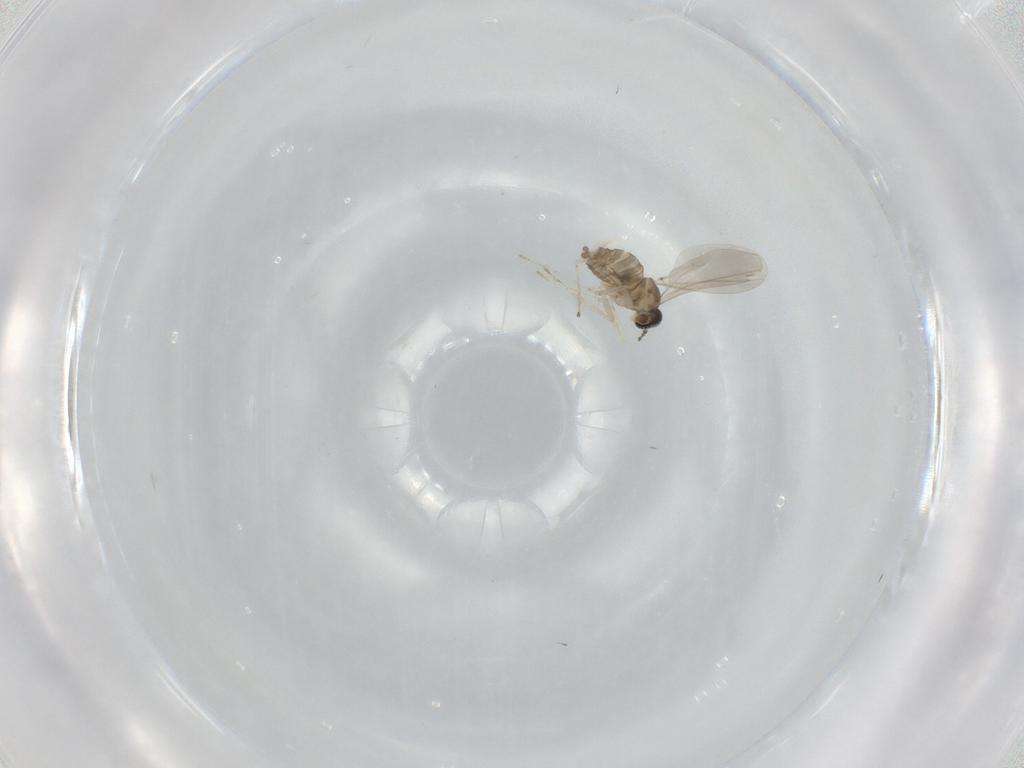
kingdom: Animalia
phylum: Arthropoda
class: Insecta
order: Diptera
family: Cecidomyiidae
